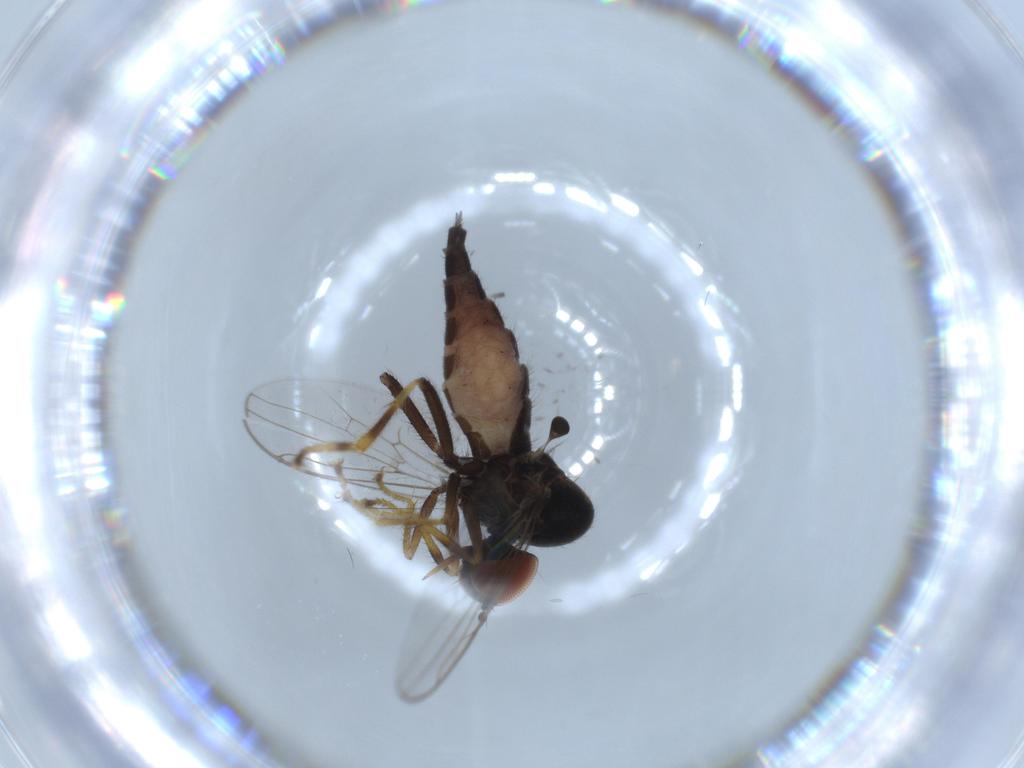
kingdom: Animalia
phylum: Arthropoda
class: Insecta
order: Diptera
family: Hybotidae
